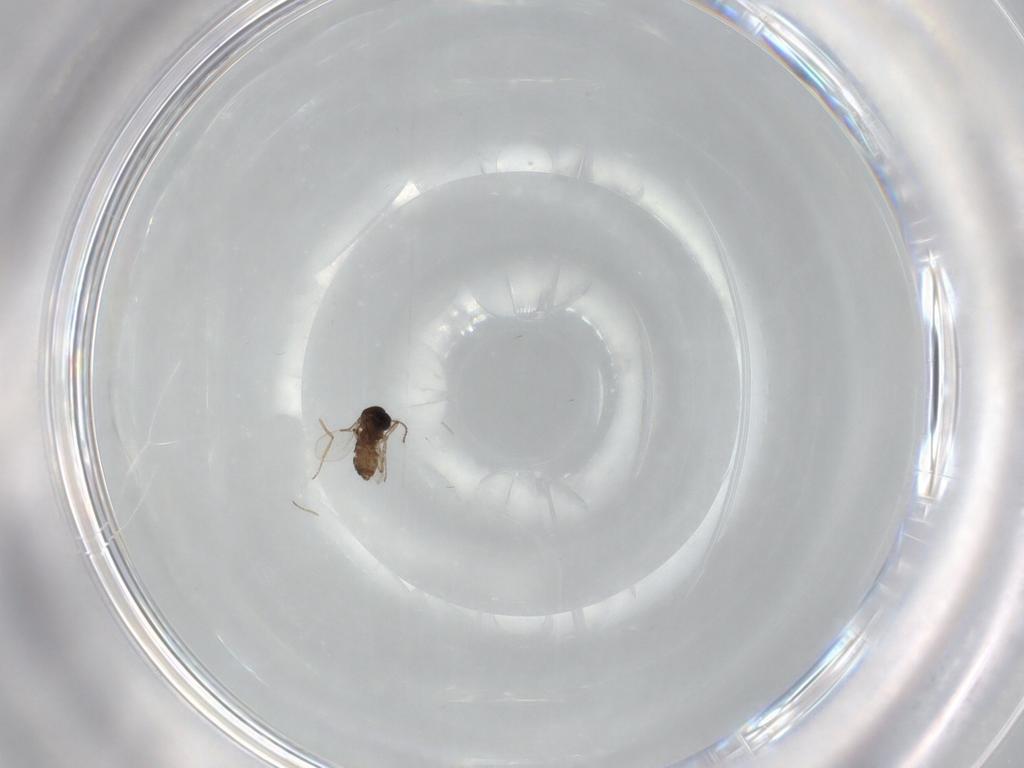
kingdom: Animalia
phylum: Arthropoda
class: Insecta
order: Diptera
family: Ceratopogonidae
